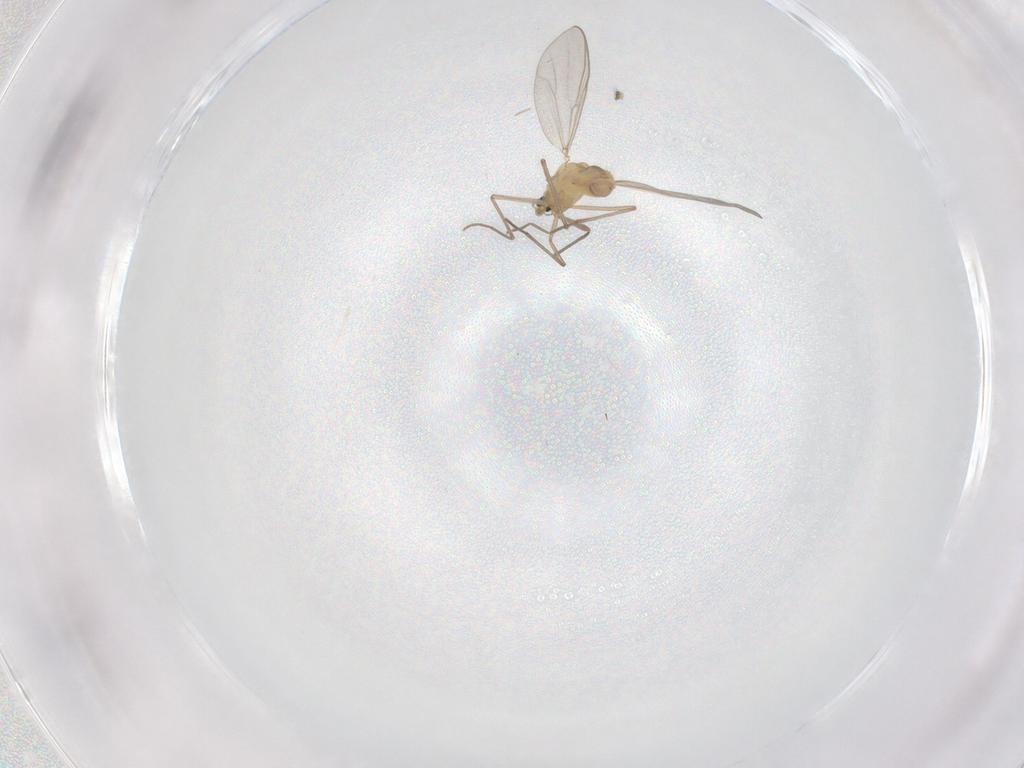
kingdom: Animalia
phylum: Arthropoda
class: Insecta
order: Diptera
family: Chironomidae
